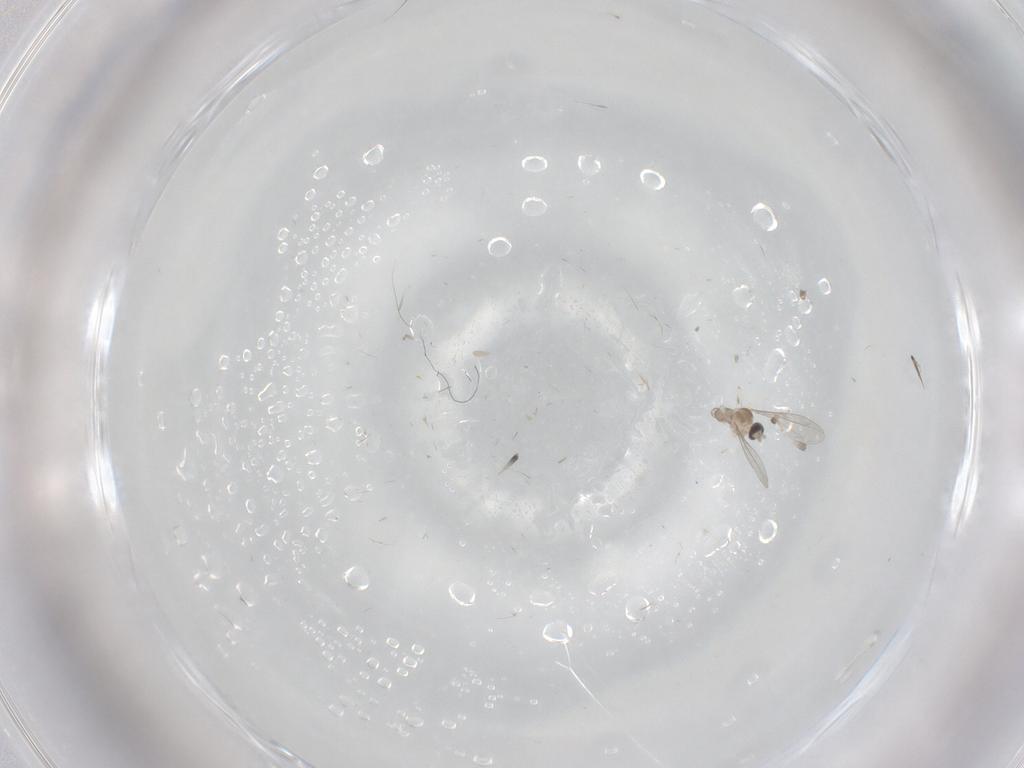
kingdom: Animalia
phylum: Arthropoda
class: Insecta
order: Diptera
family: Cecidomyiidae
